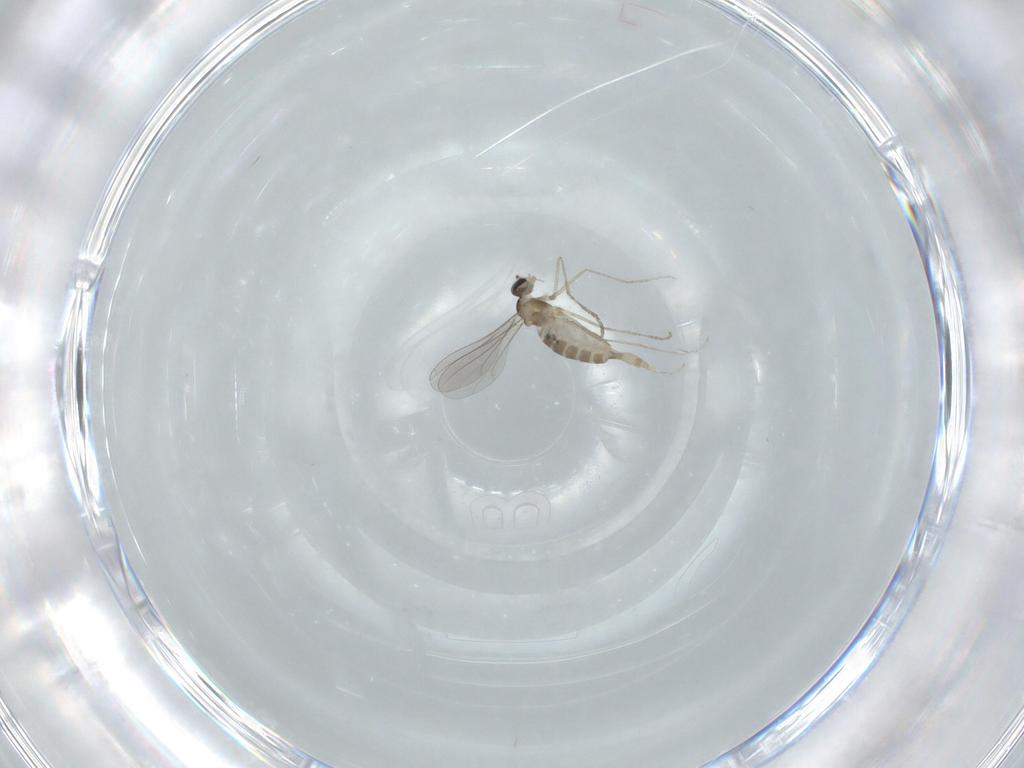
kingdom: Animalia
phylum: Arthropoda
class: Insecta
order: Diptera
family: Cecidomyiidae
